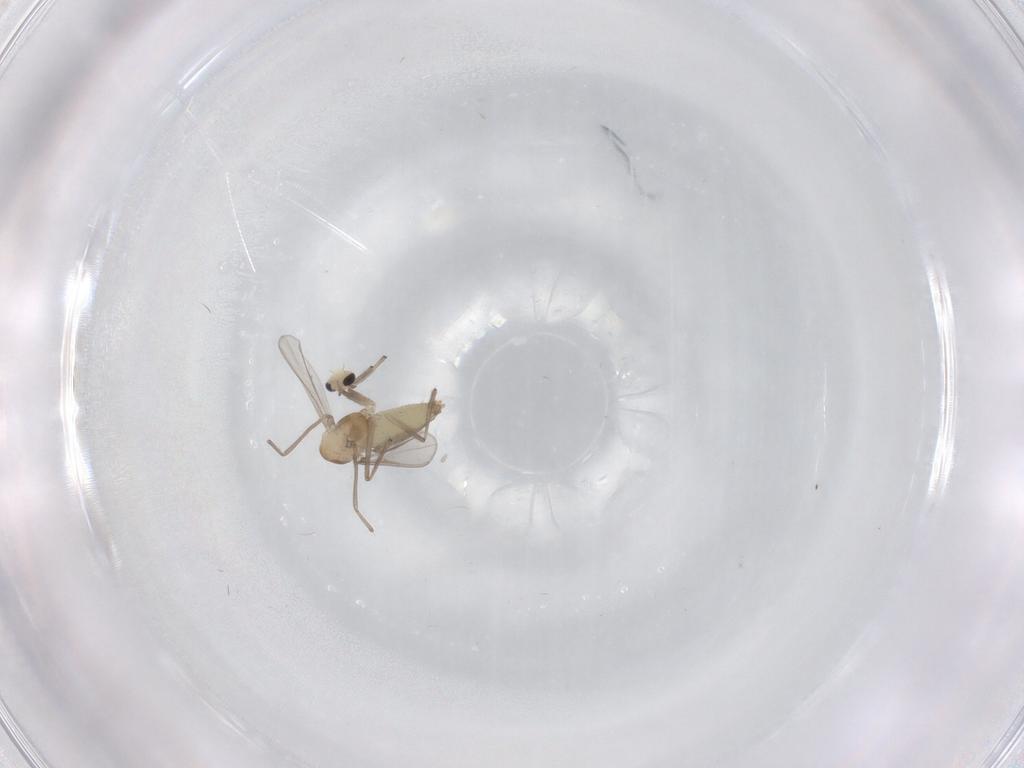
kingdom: Animalia
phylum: Arthropoda
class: Insecta
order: Diptera
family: Chironomidae
